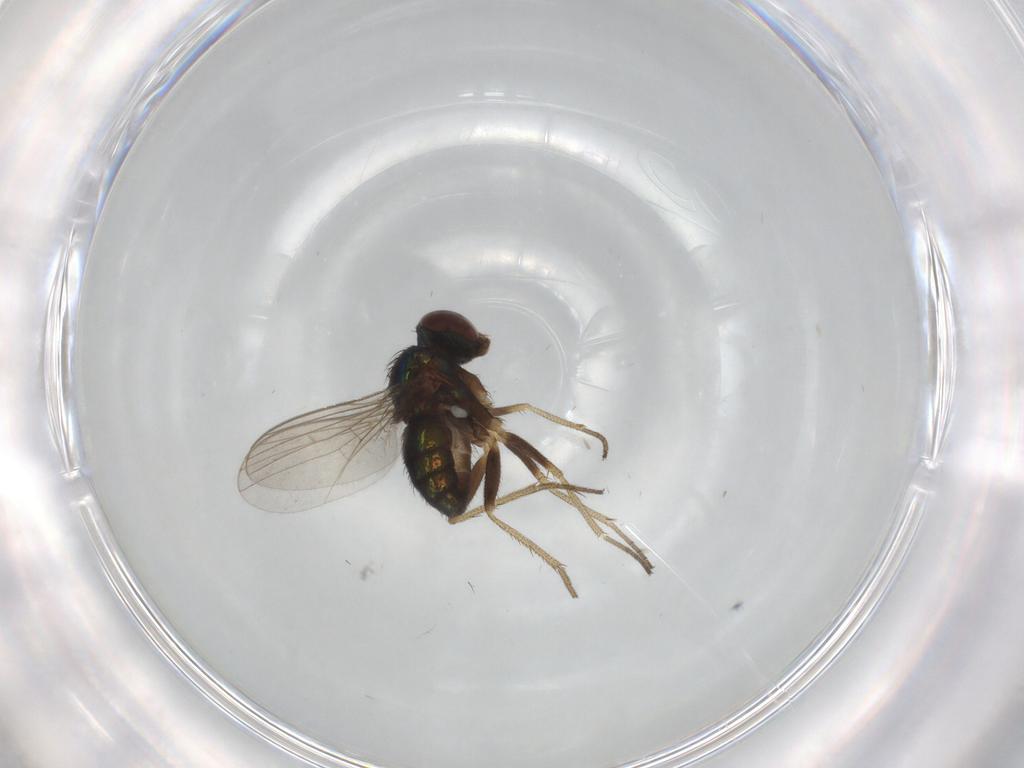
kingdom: Animalia
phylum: Arthropoda
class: Insecta
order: Diptera
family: Dolichopodidae
